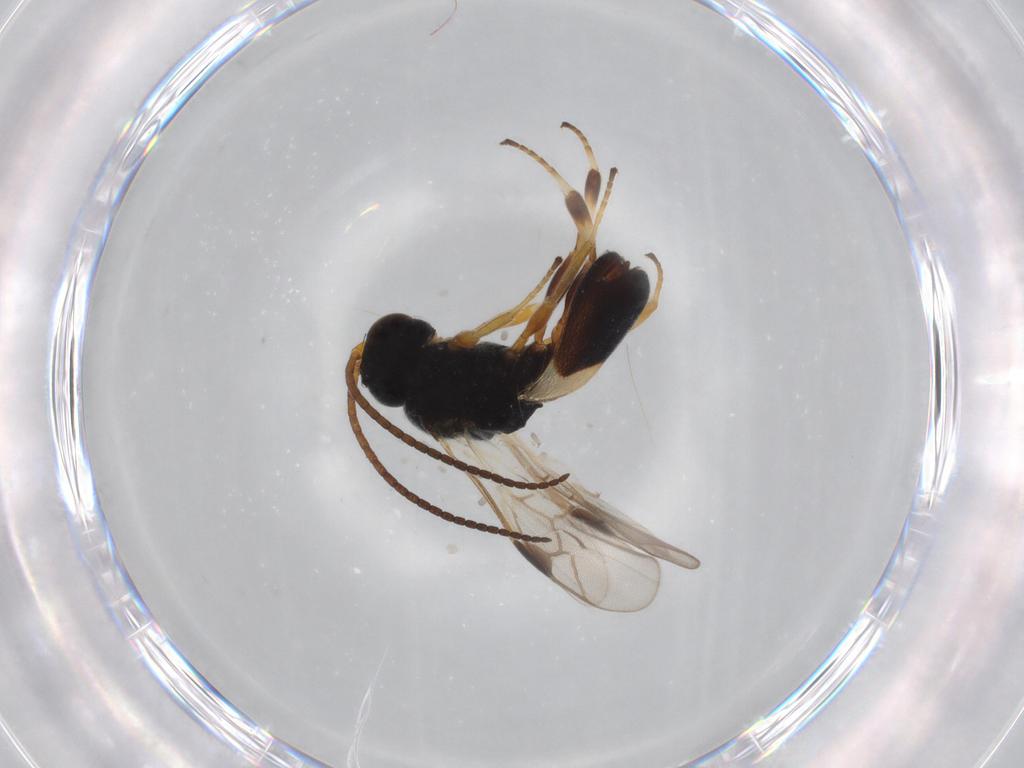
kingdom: Animalia
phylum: Arthropoda
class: Insecta
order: Hymenoptera
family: Braconidae
